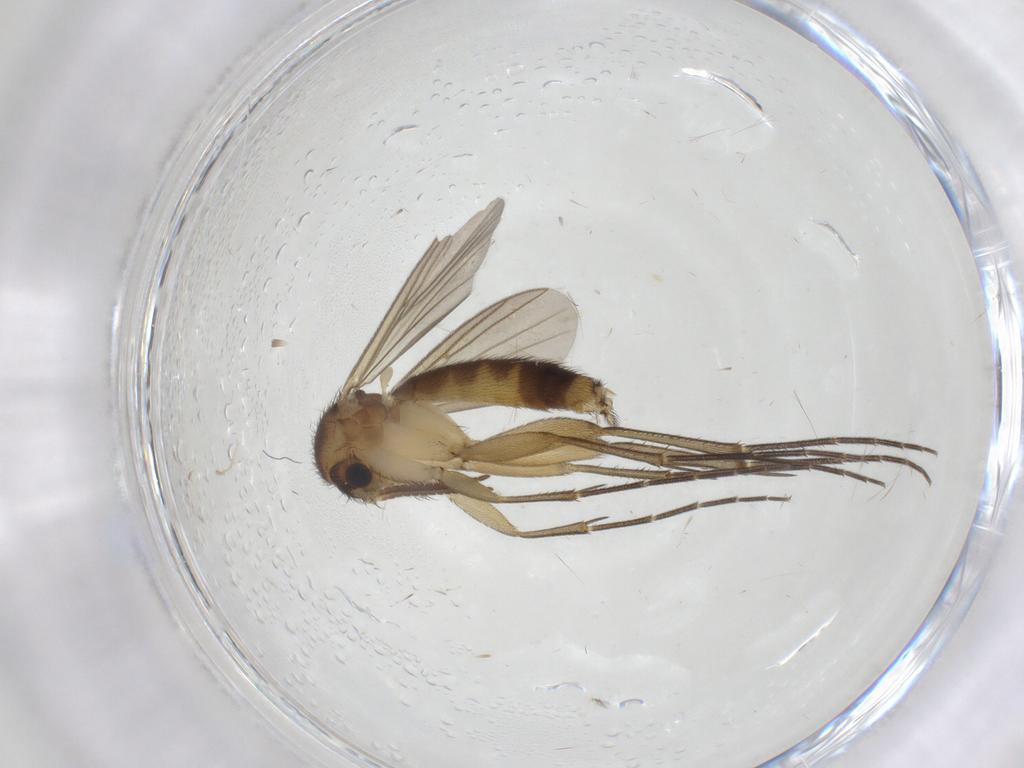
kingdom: Animalia
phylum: Arthropoda
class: Insecta
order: Diptera
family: Mycetophilidae
